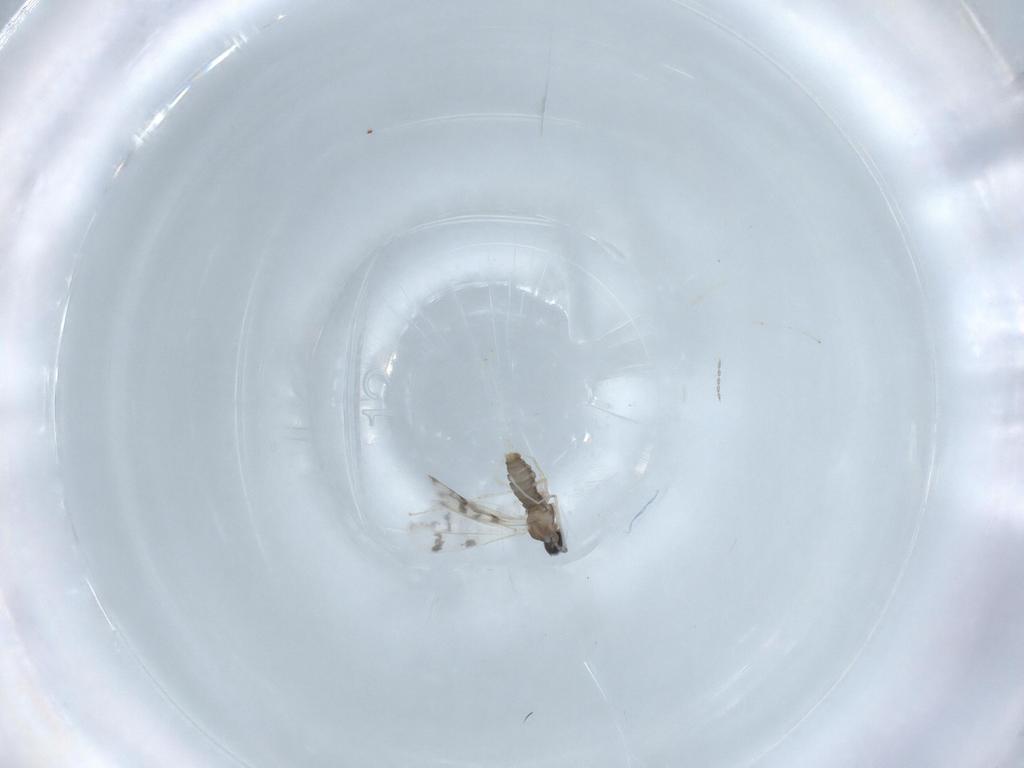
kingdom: Animalia
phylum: Arthropoda
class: Insecta
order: Diptera
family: Cecidomyiidae
